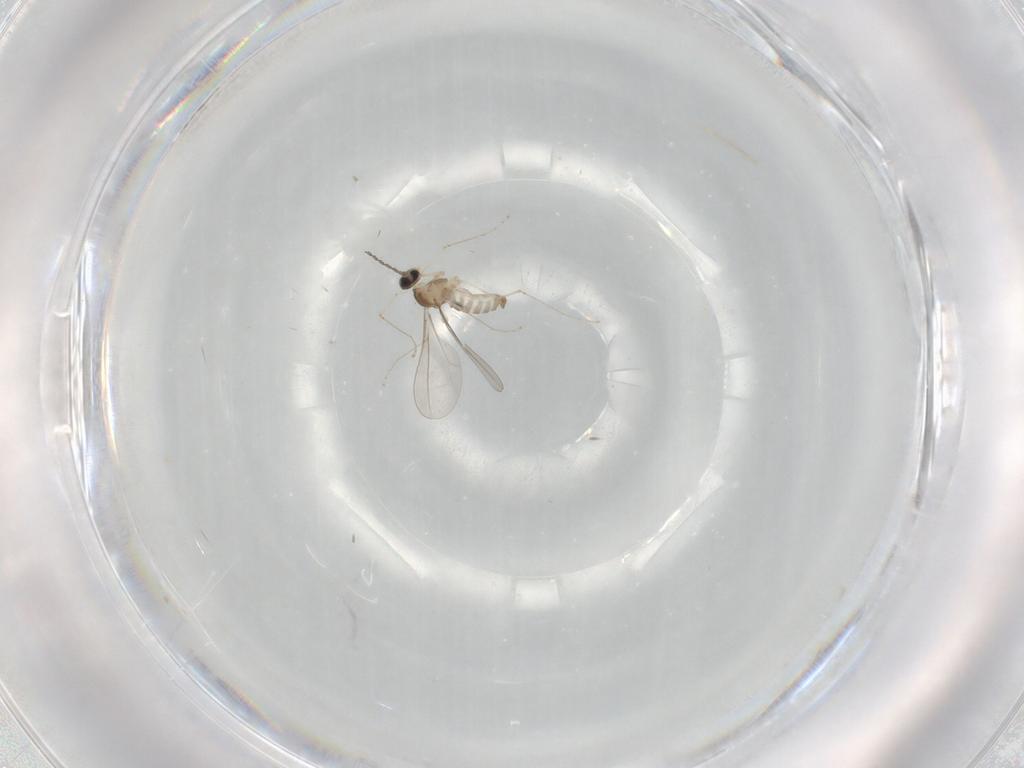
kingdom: Animalia
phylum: Arthropoda
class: Insecta
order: Diptera
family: Cecidomyiidae
